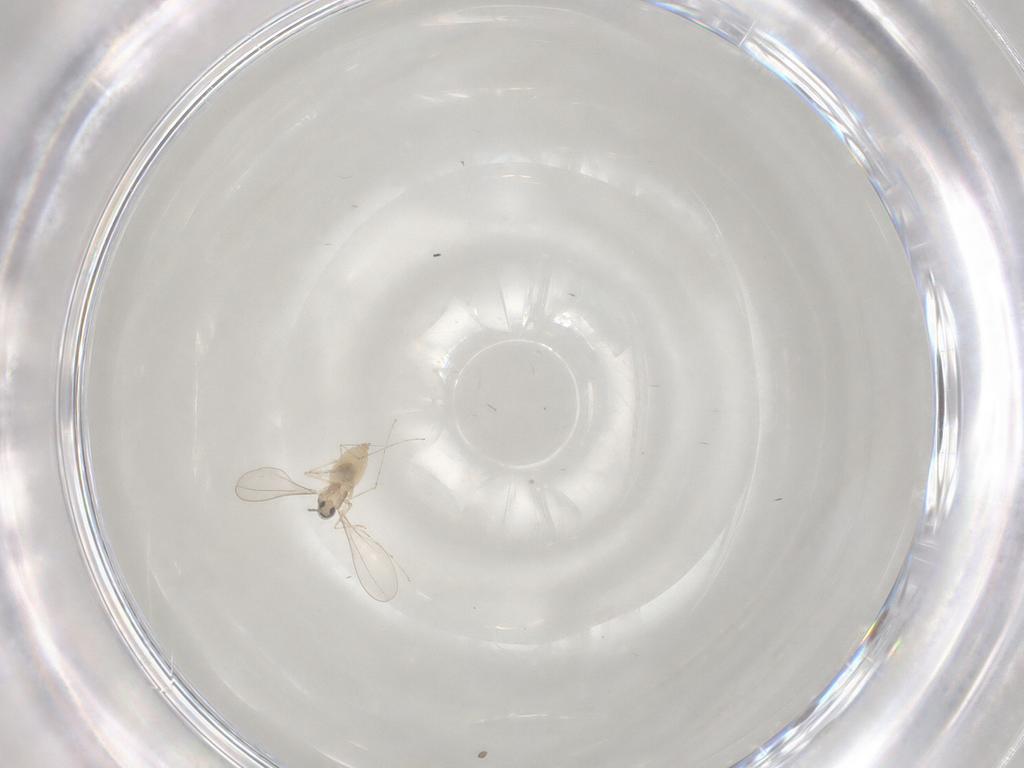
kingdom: Animalia
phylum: Arthropoda
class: Insecta
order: Diptera
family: Cecidomyiidae
